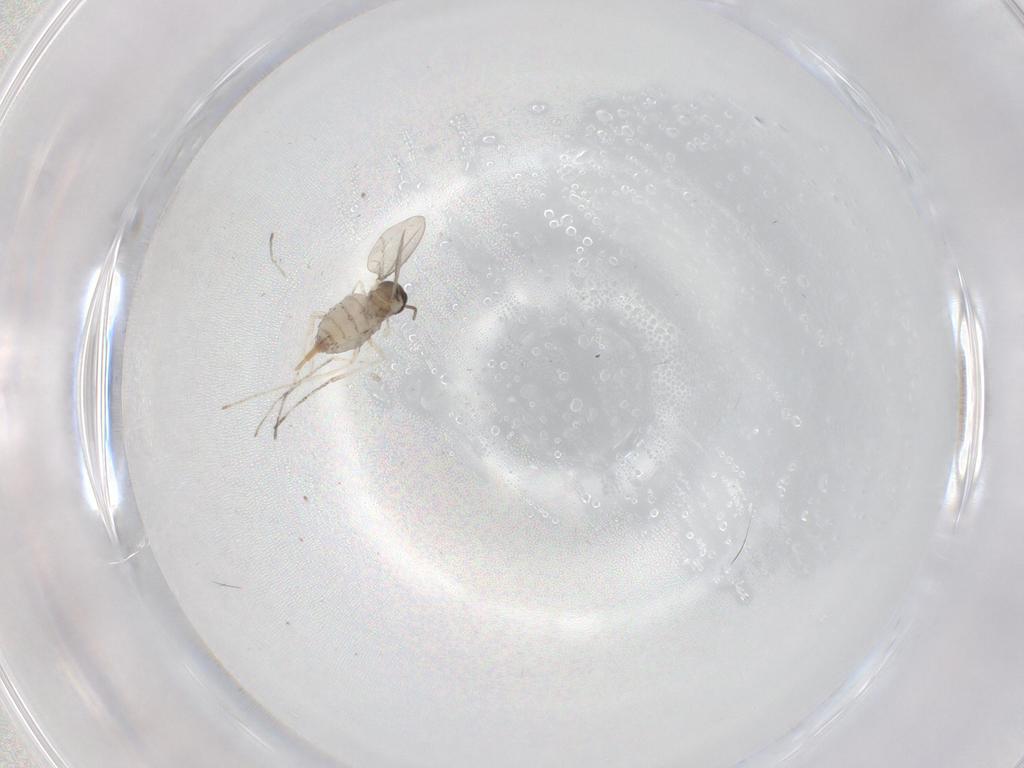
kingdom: Animalia
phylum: Arthropoda
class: Insecta
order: Diptera
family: Cecidomyiidae
